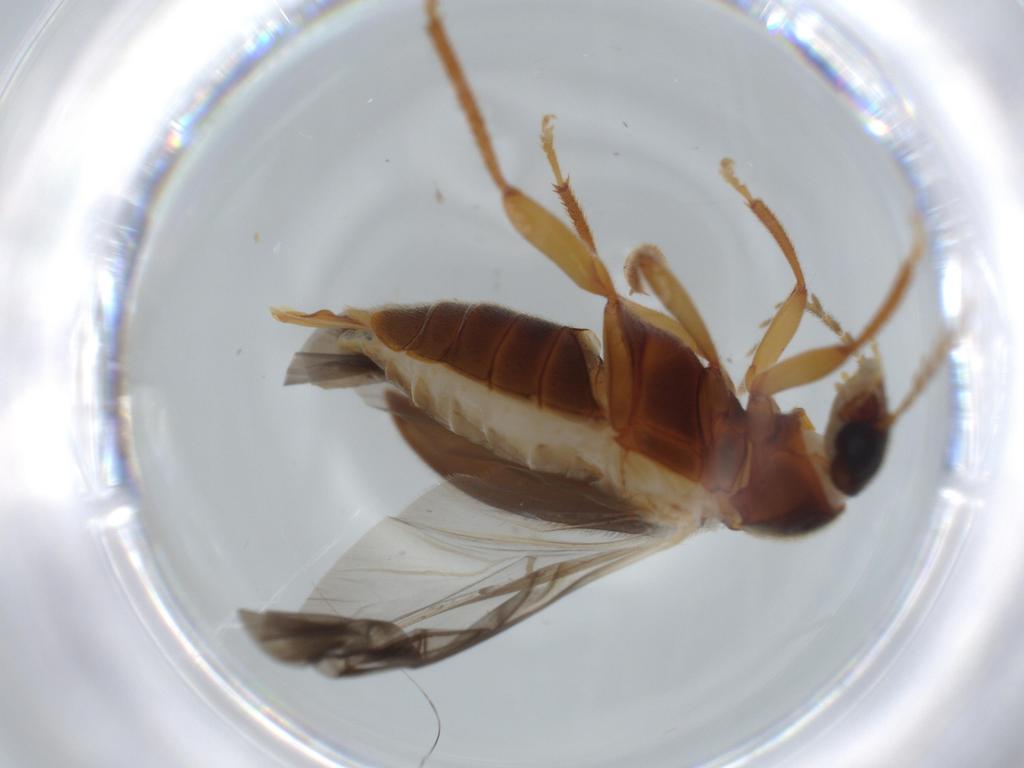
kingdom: Animalia
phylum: Arthropoda
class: Insecta
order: Coleoptera
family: Ptilodactylidae
